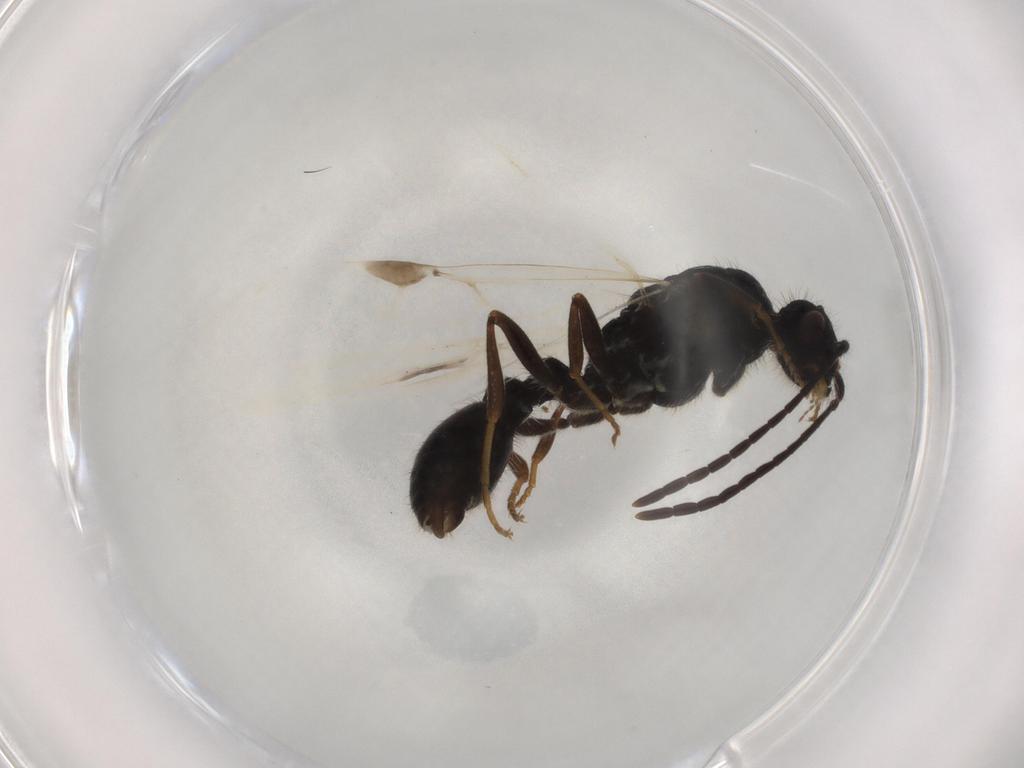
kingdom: Animalia
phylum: Arthropoda
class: Insecta
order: Hymenoptera
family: Formicidae
